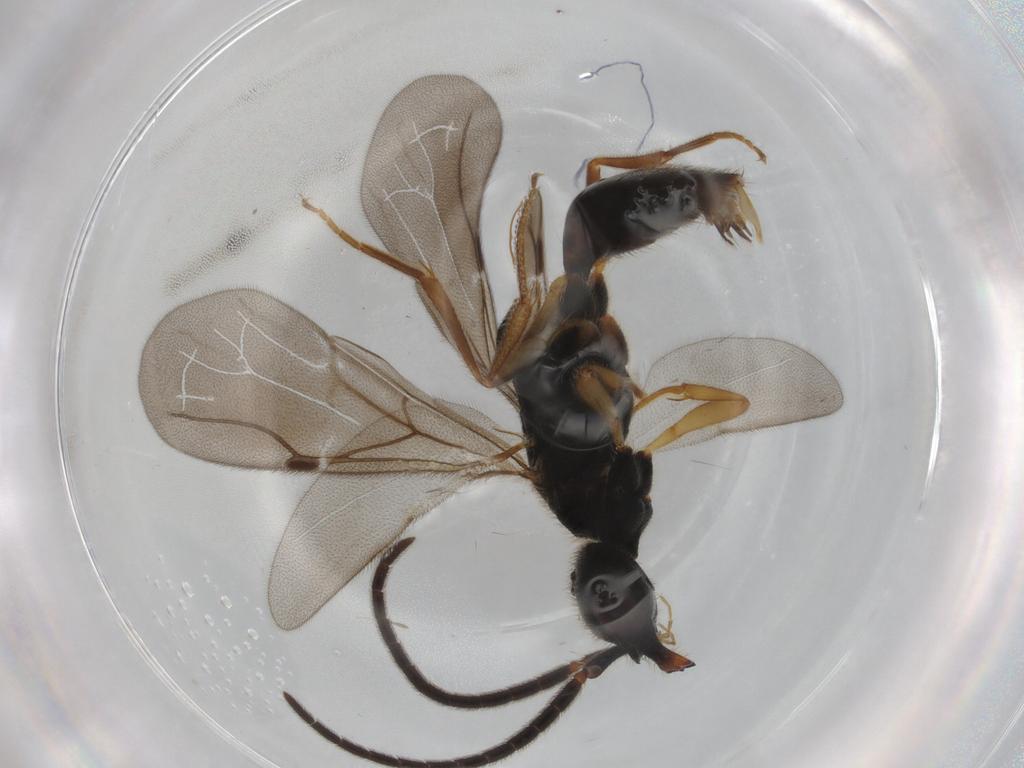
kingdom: Animalia
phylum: Arthropoda
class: Insecta
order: Hymenoptera
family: Bethylidae
